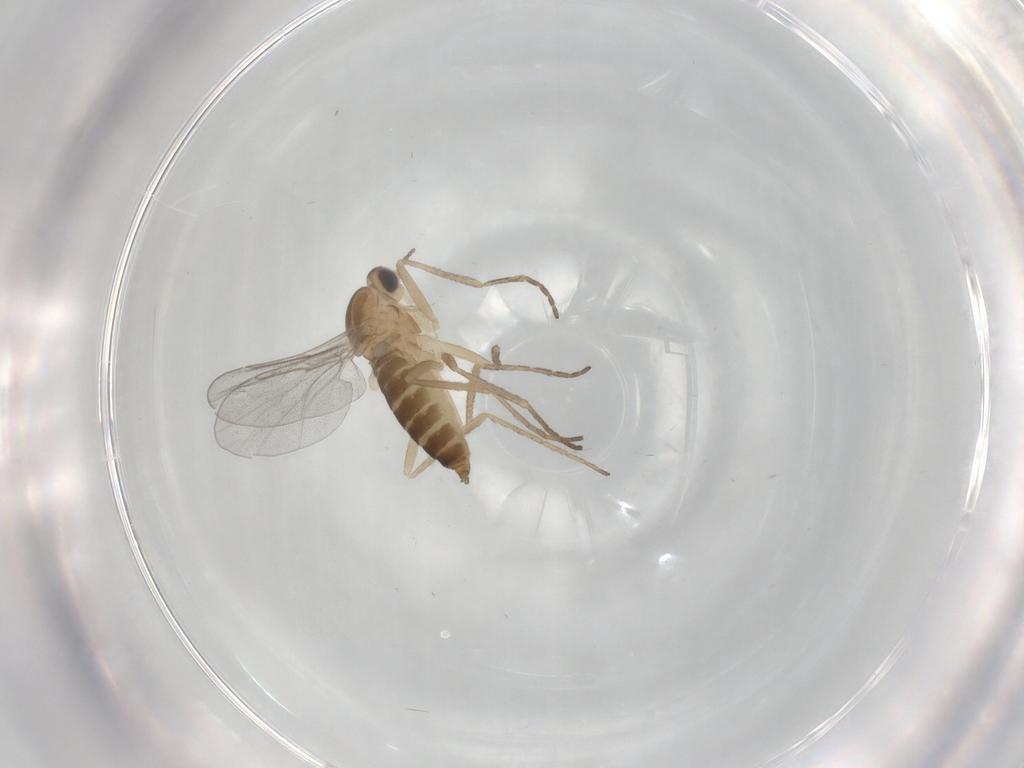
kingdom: Animalia
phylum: Arthropoda
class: Insecta
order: Diptera
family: Cecidomyiidae
